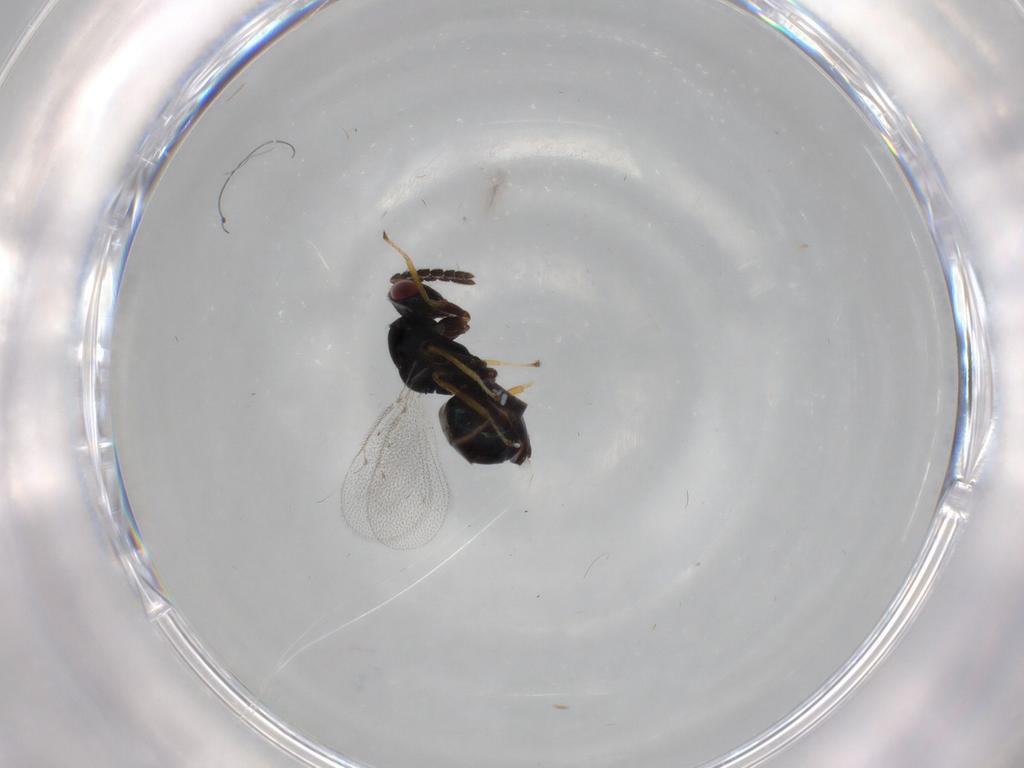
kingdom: Animalia
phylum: Arthropoda
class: Insecta
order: Hymenoptera
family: Eulophidae
